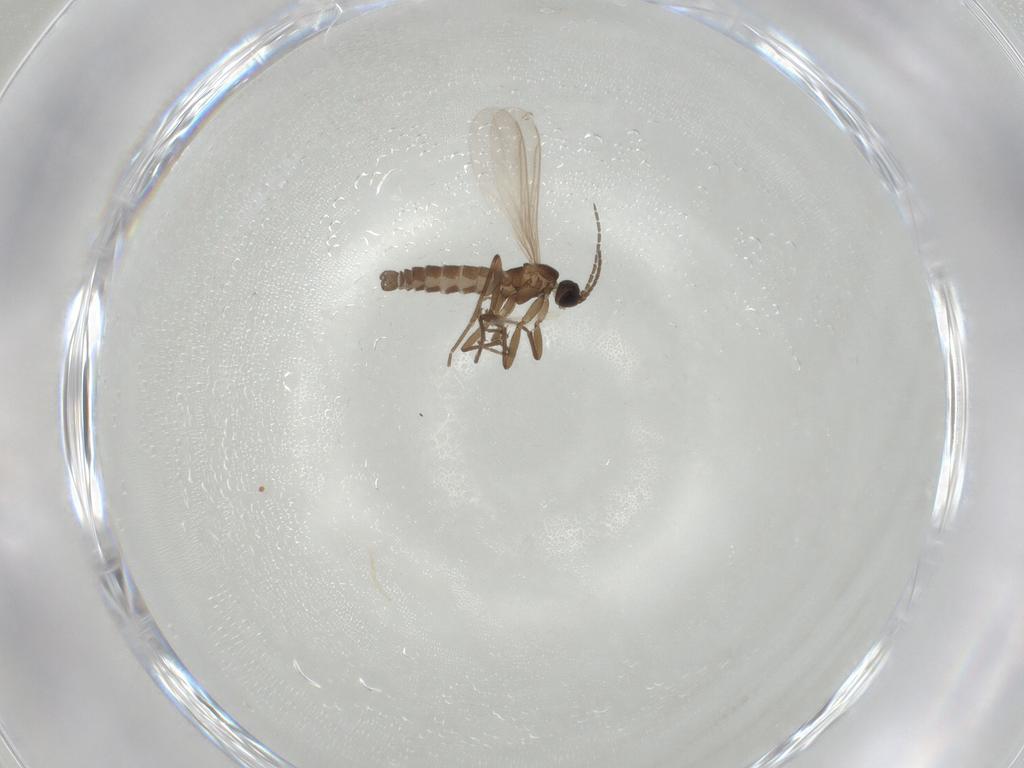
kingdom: Animalia
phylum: Arthropoda
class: Insecta
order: Diptera
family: Sciaridae
